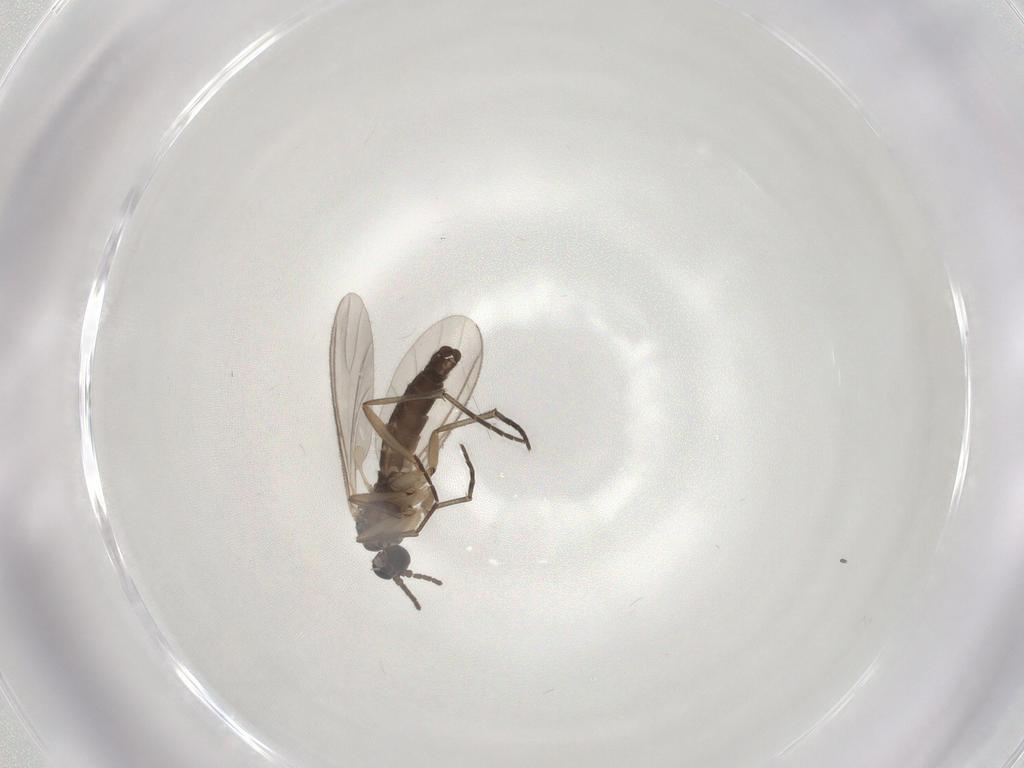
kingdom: Animalia
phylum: Arthropoda
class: Insecta
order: Diptera
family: Sciaridae
